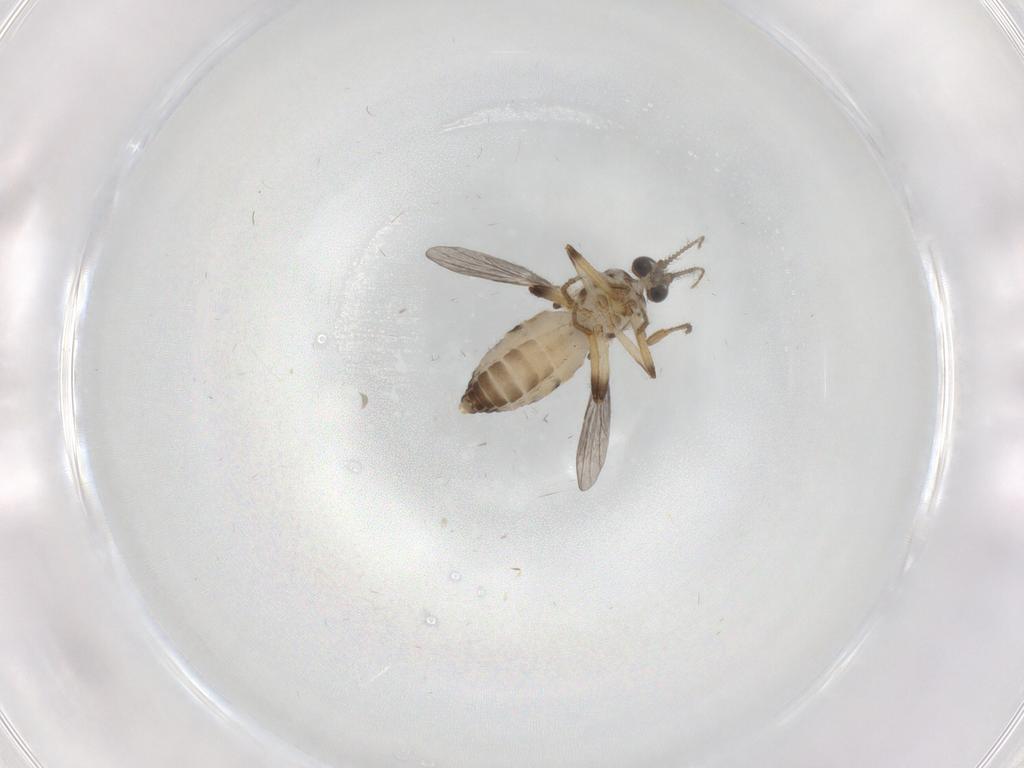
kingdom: Animalia
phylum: Arthropoda
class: Insecta
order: Diptera
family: Ceratopogonidae
